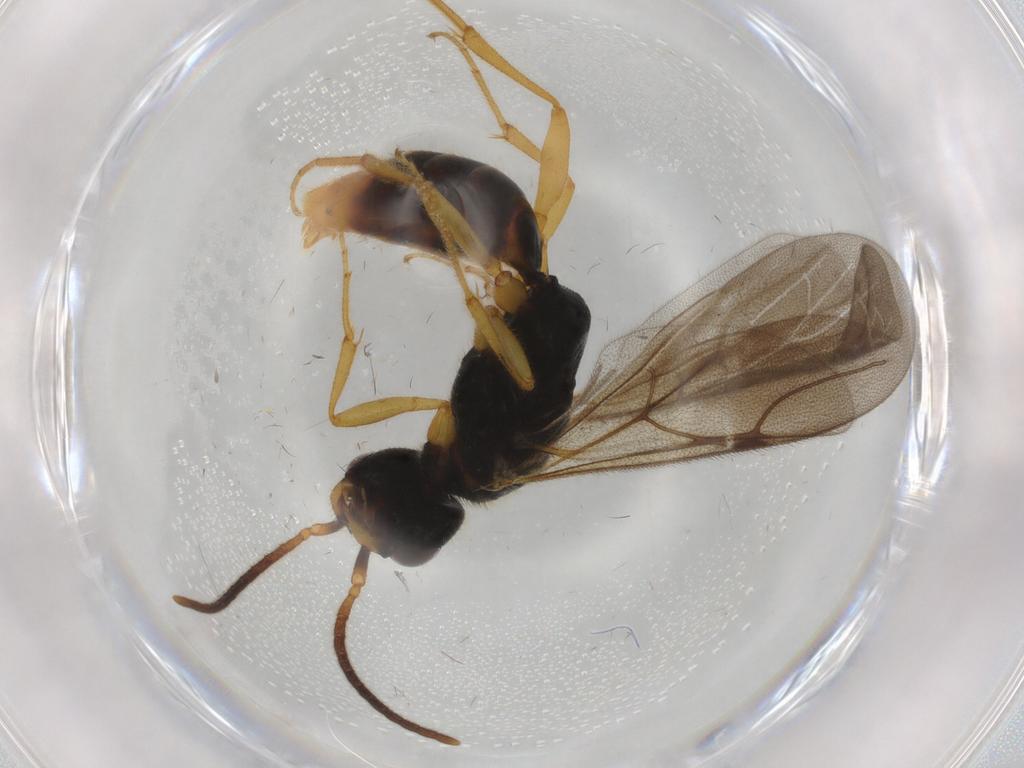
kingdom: Animalia
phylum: Arthropoda
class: Insecta
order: Hymenoptera
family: Bethylidae
